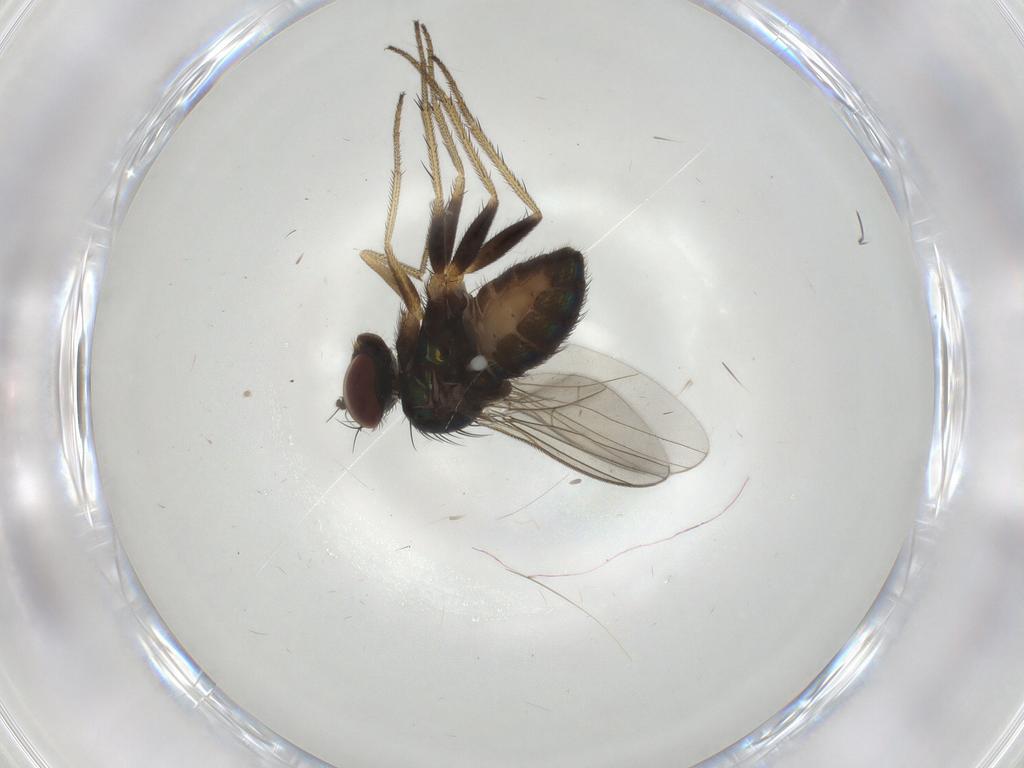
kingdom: Animalia
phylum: Arthropoda
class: Insecta
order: Diptera
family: Dolichopodidae
